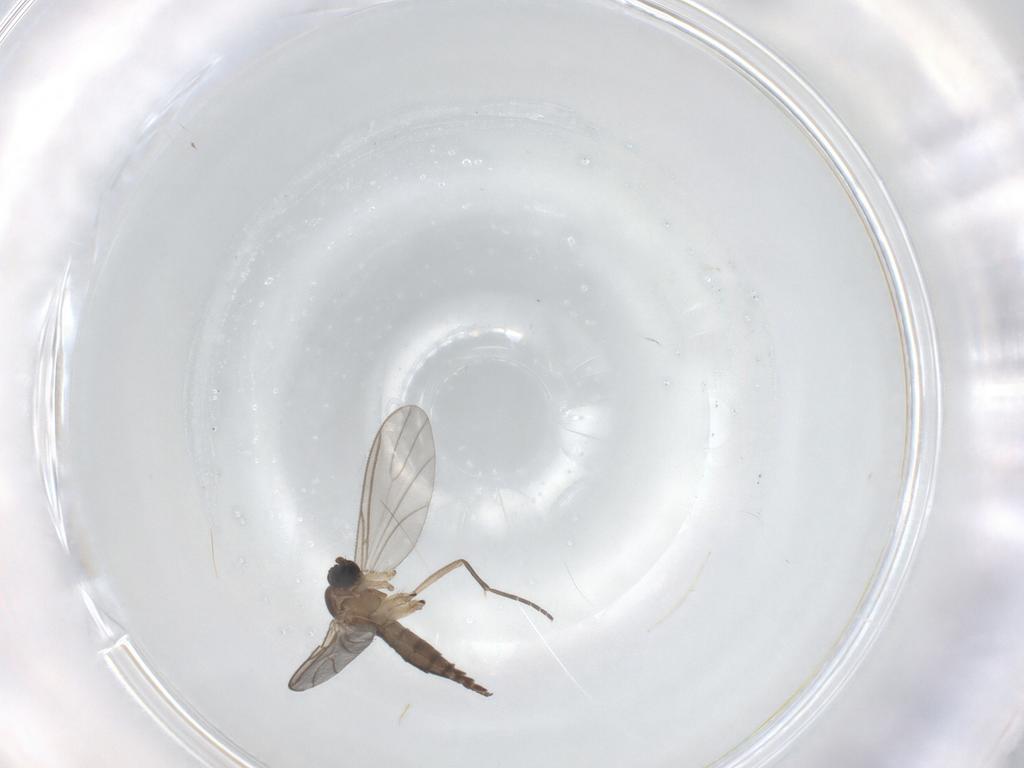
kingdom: Animalia
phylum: Arthropoda
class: Insecta
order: Diptera
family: Sciaridae
